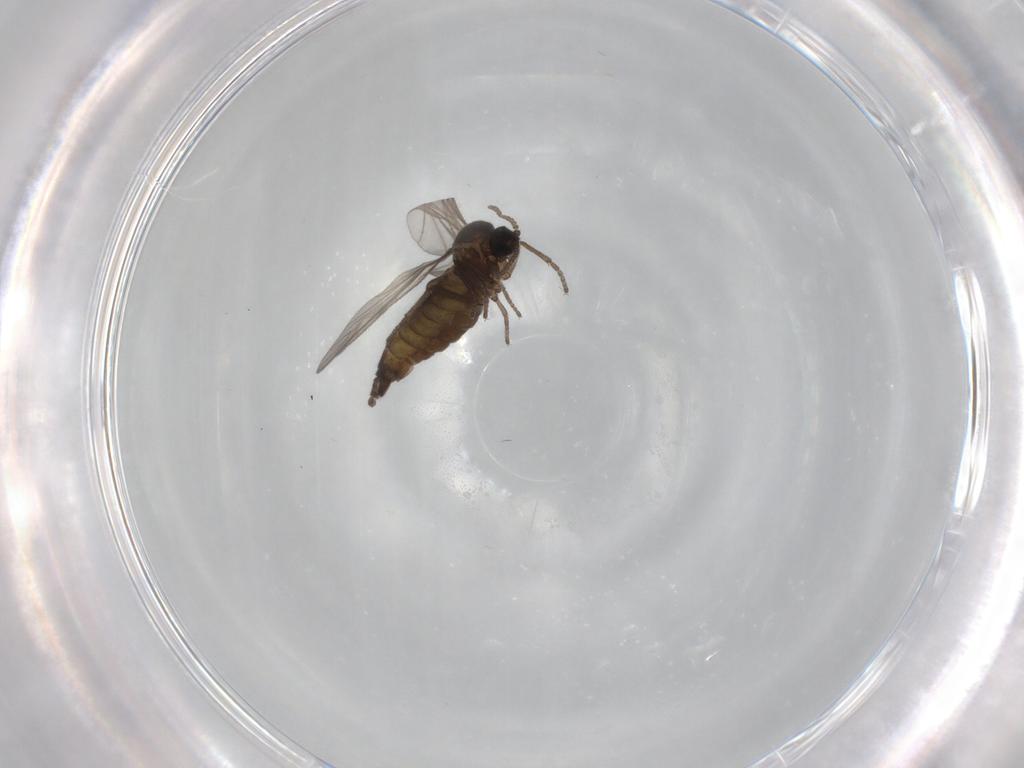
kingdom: Animalia
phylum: Arthropoda
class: Insecta
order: Diptera
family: Sciaridae
